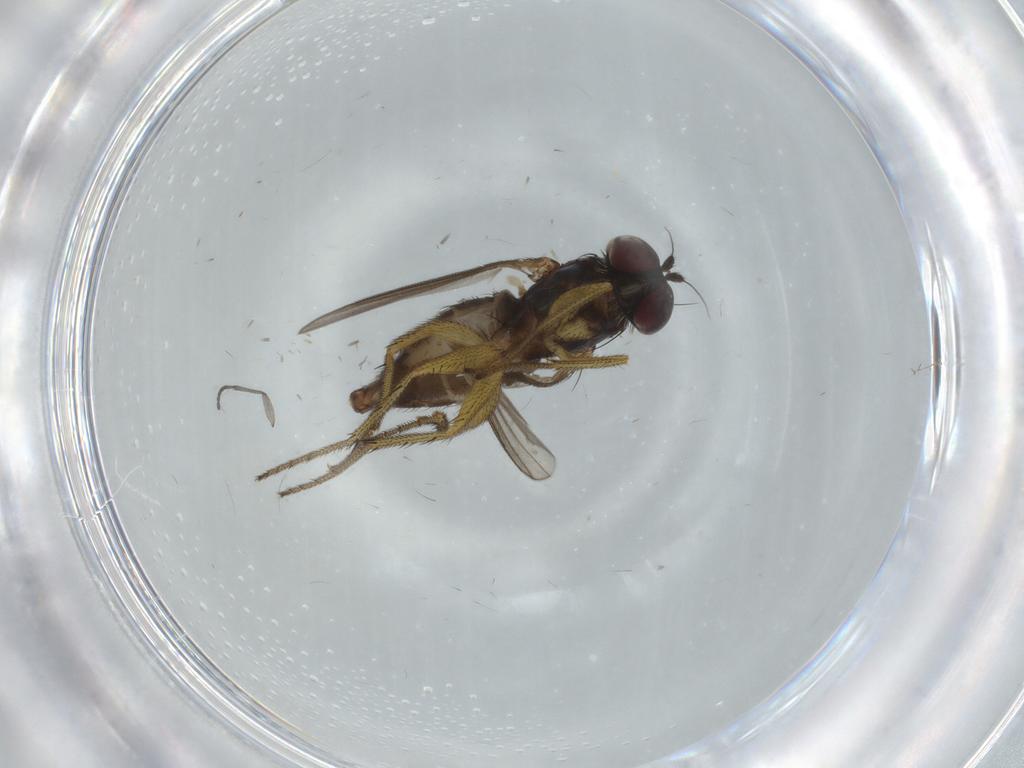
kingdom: Animalia
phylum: Arthropoda
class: Insecta
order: Diptera
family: Sciaridae
